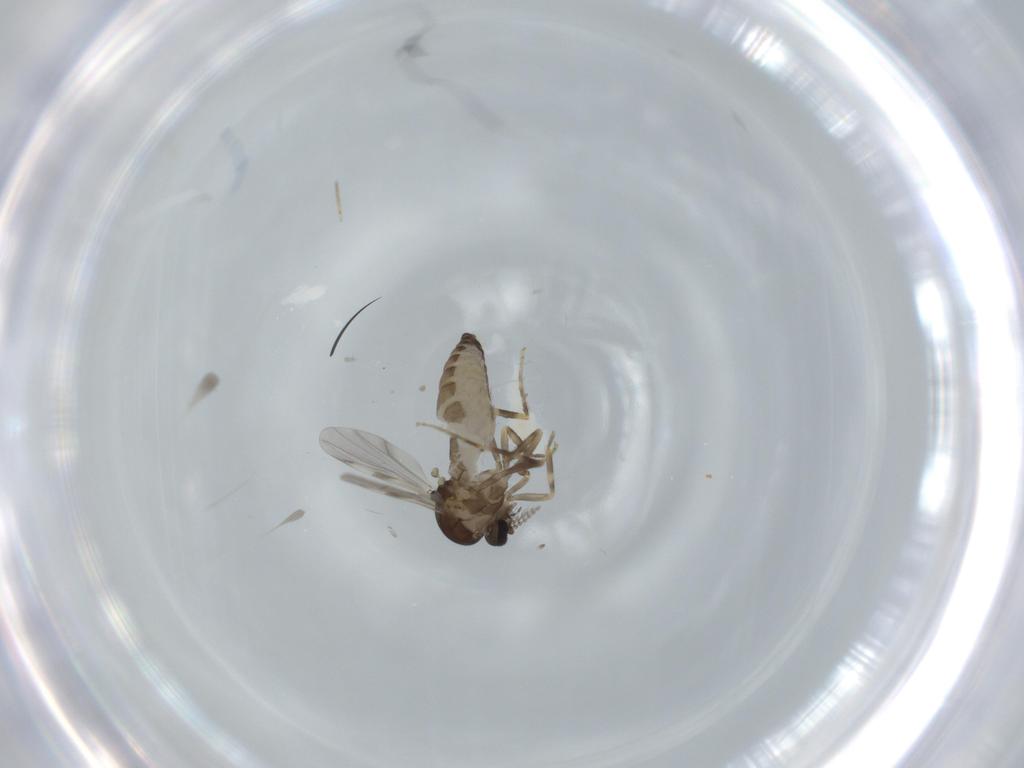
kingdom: Animalia
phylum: Arthropoda
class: Insecta
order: Diptera
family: Ceratopogonidae
